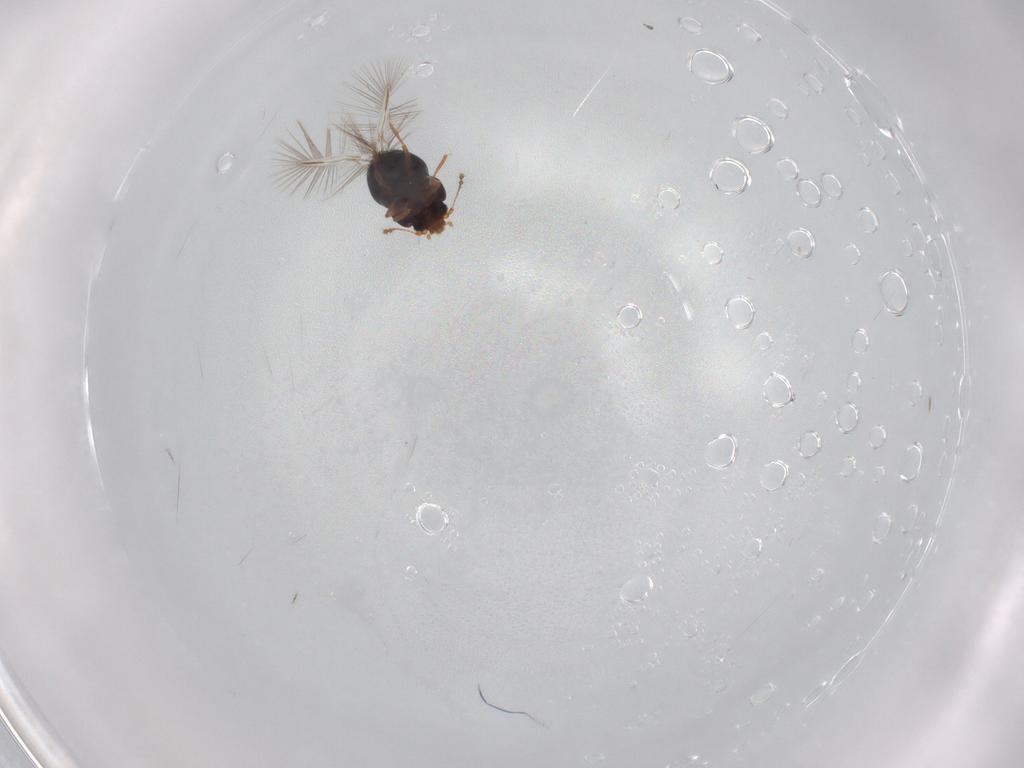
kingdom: Animalia
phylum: Arthropoda
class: Insecta
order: Coleoptera
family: Ptiliidae
